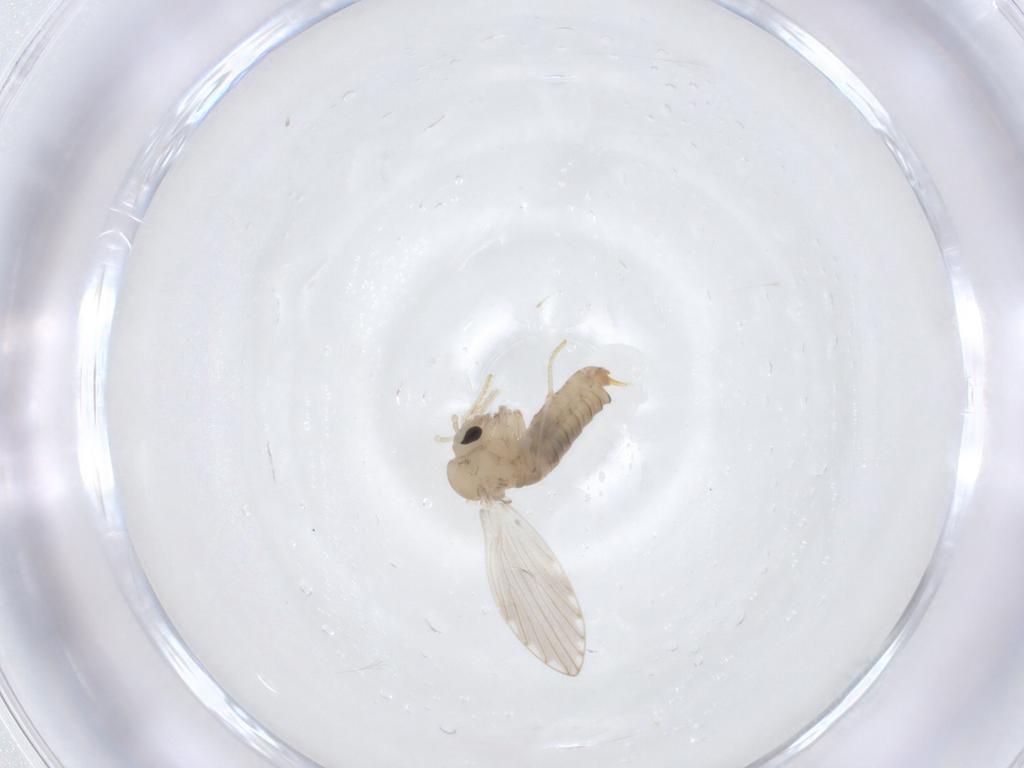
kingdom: Animalia
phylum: Arthropoda
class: Insecta
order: Diptera
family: Psychodidae
